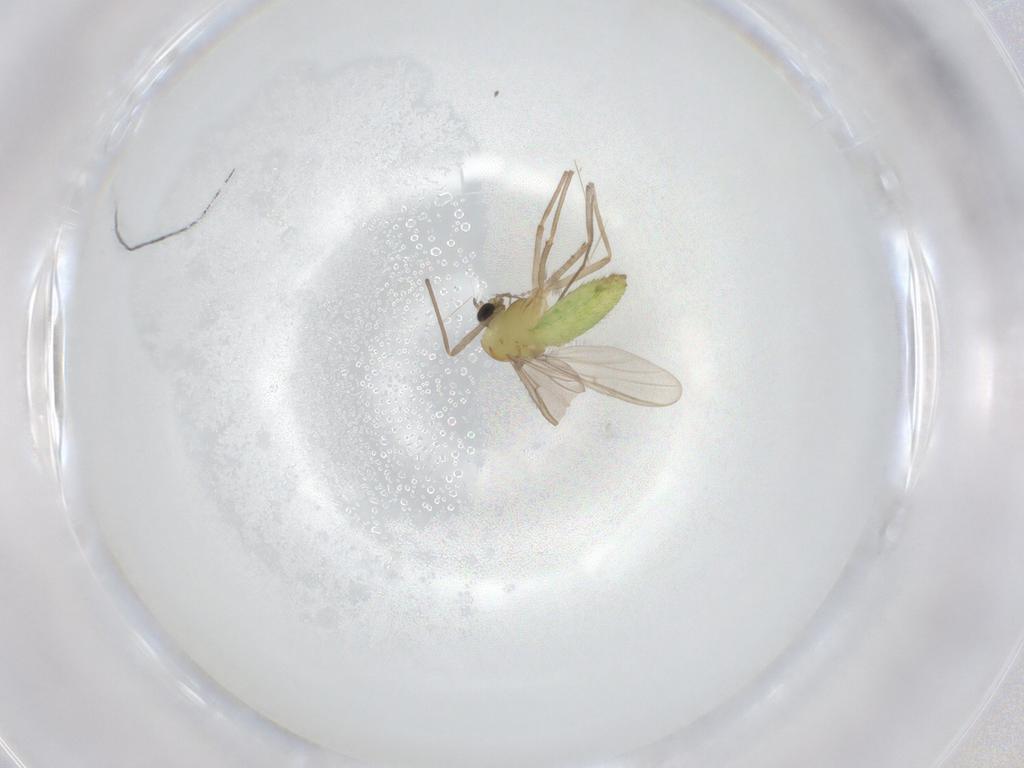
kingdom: Animalia
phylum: Arthropoda
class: Insecta
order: Diptera
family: Chironomidae
